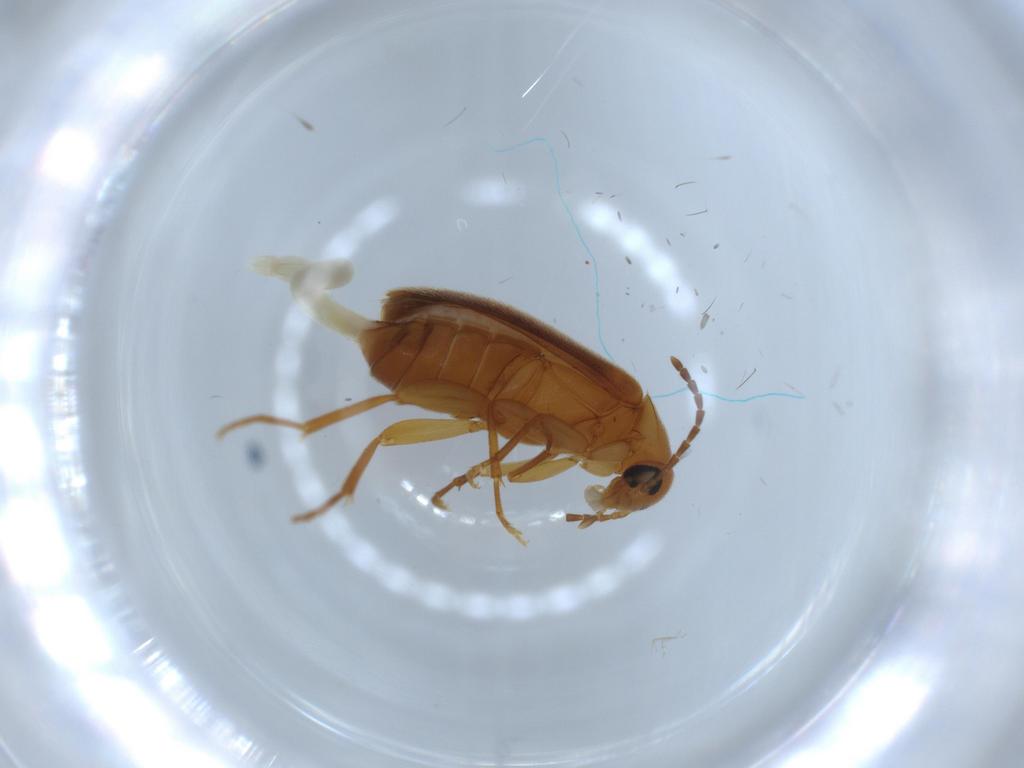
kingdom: Animalia
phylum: Arthropoda
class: Insecta
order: Coleoptera
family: Scraptiidae
